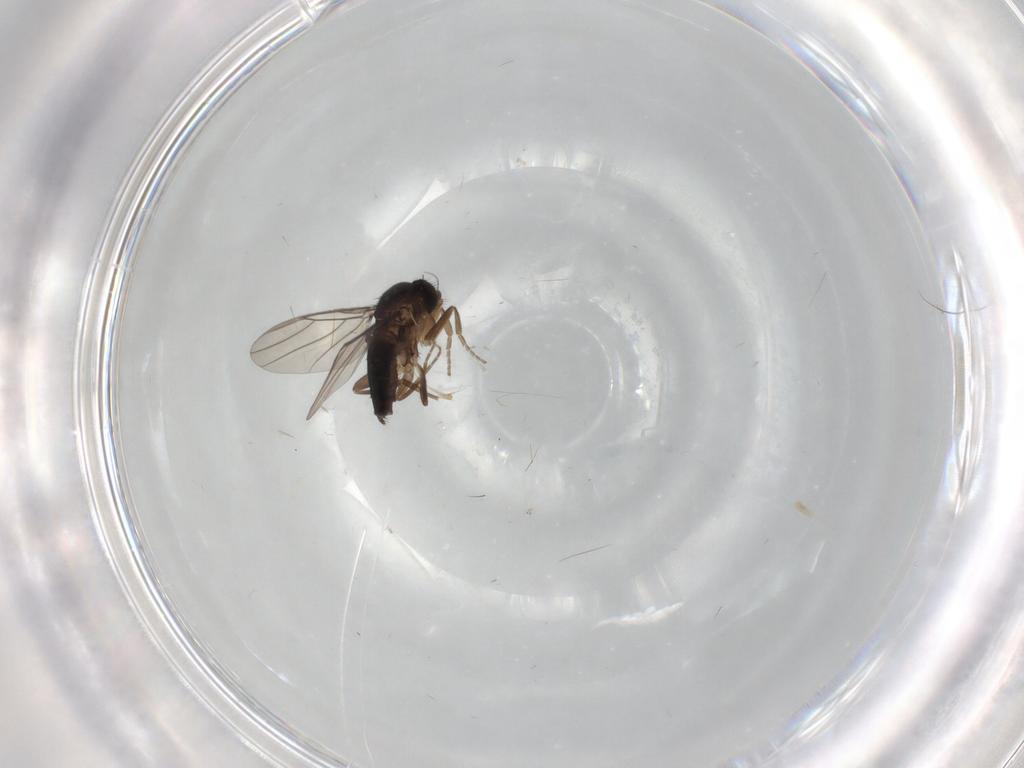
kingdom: Animalia
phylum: Arthropoda
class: Insecta
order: Diptera
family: Phoridae
